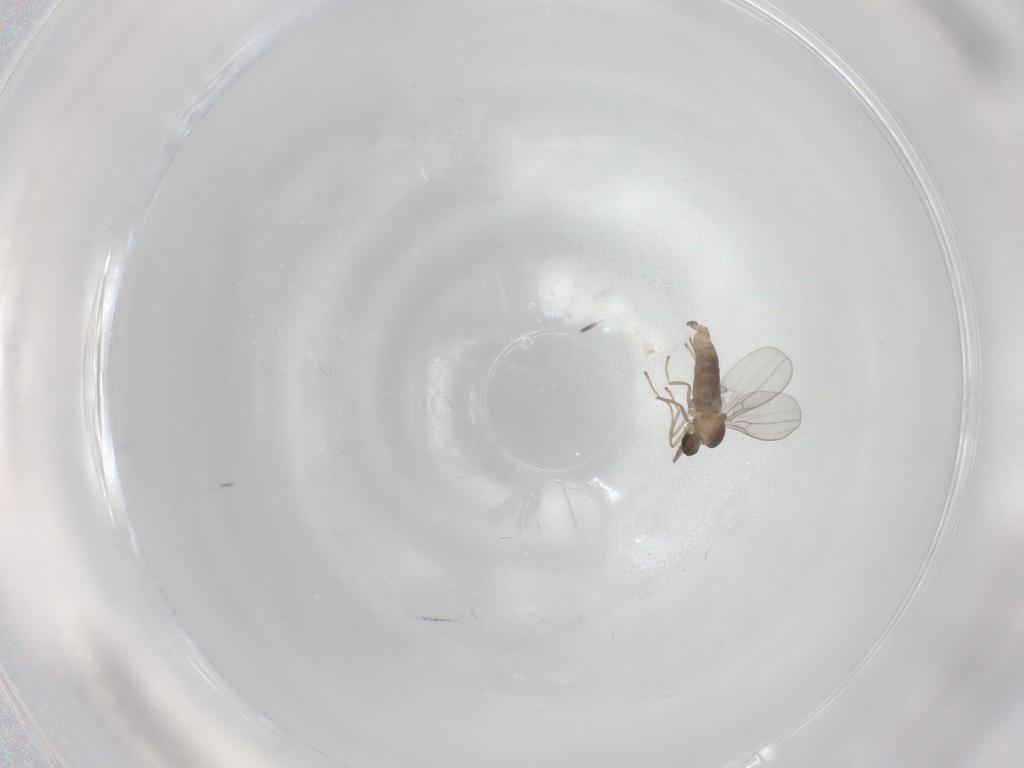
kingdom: Animalia
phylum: Arthropoda
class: Insecta
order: Diptera
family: Cecidomyiidae
